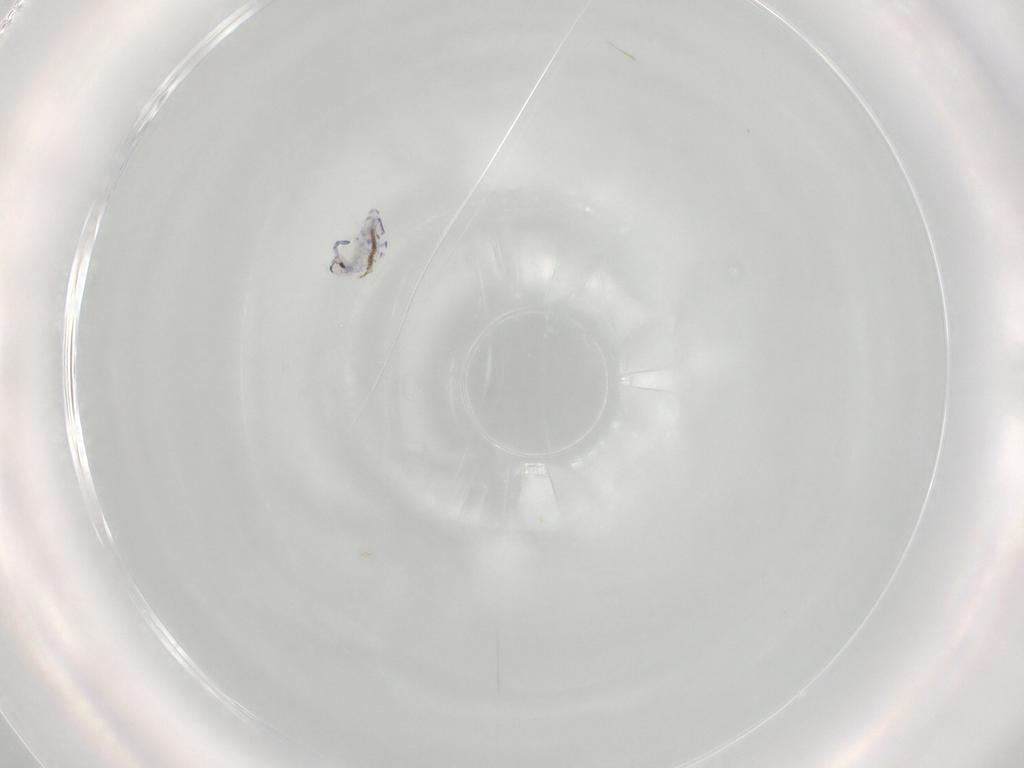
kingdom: Animalia
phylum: Arthropoda
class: Collembola
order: Entomobryomorpha
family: Entomobryidae
